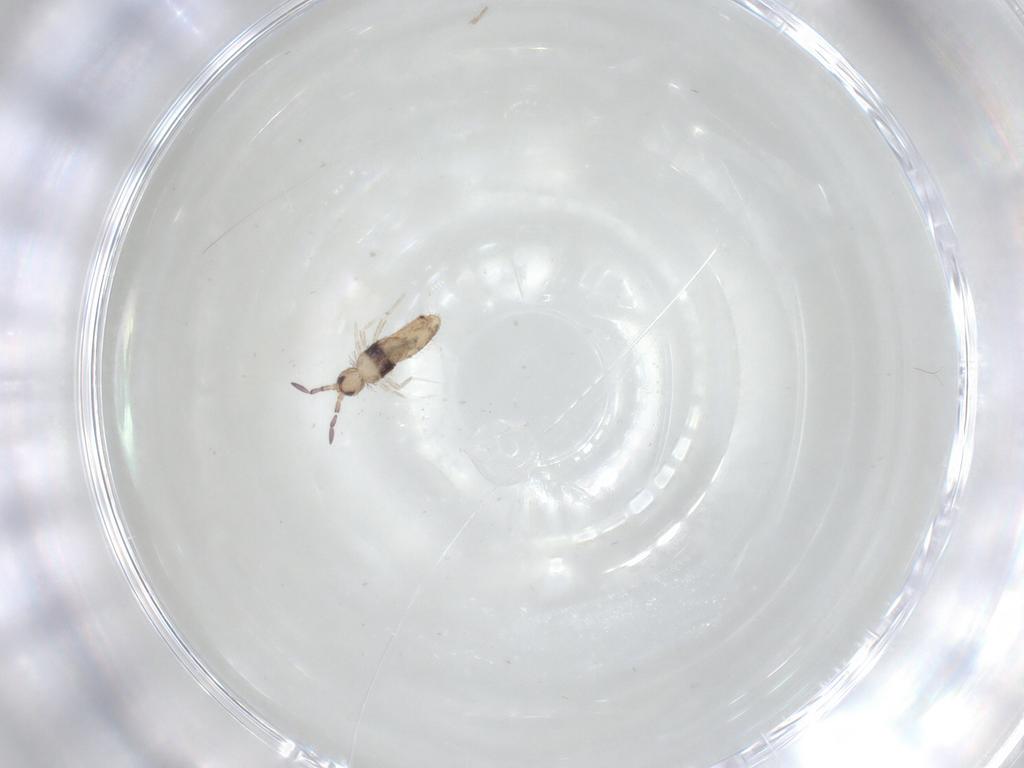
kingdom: Animalia
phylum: Arthropoda
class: Collembola
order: Entomobryomorpha
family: Entomobryidae
